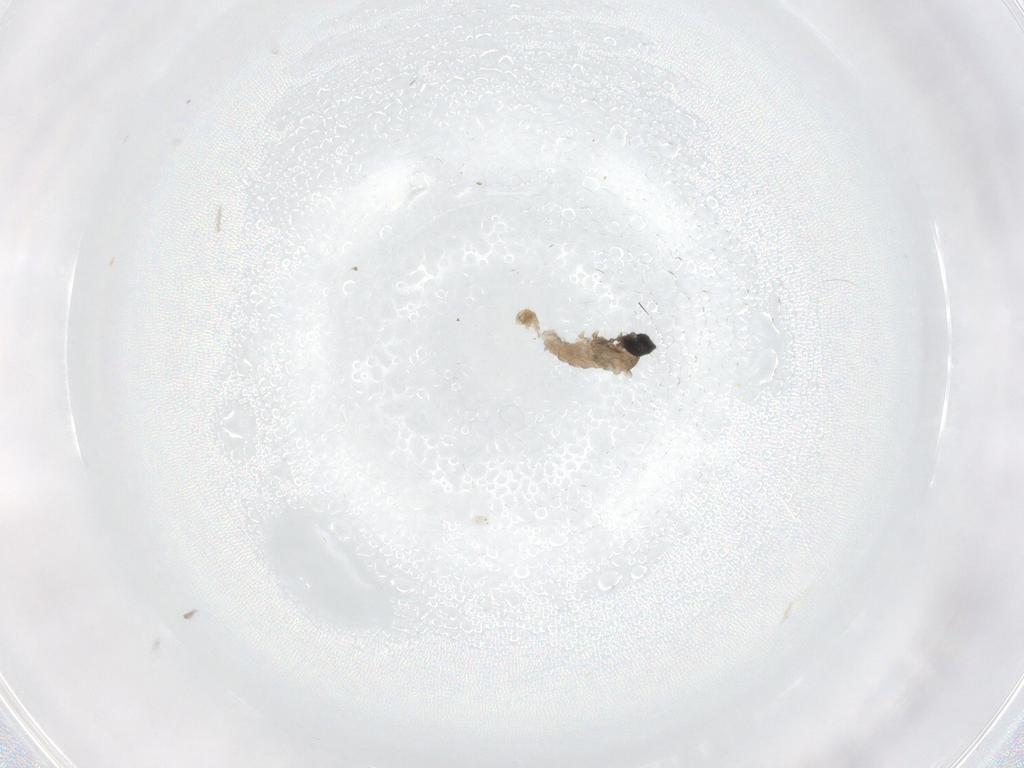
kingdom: Animalia
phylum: Arthropoda
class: Insecta
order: Diptera
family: Cecidomyiidae
